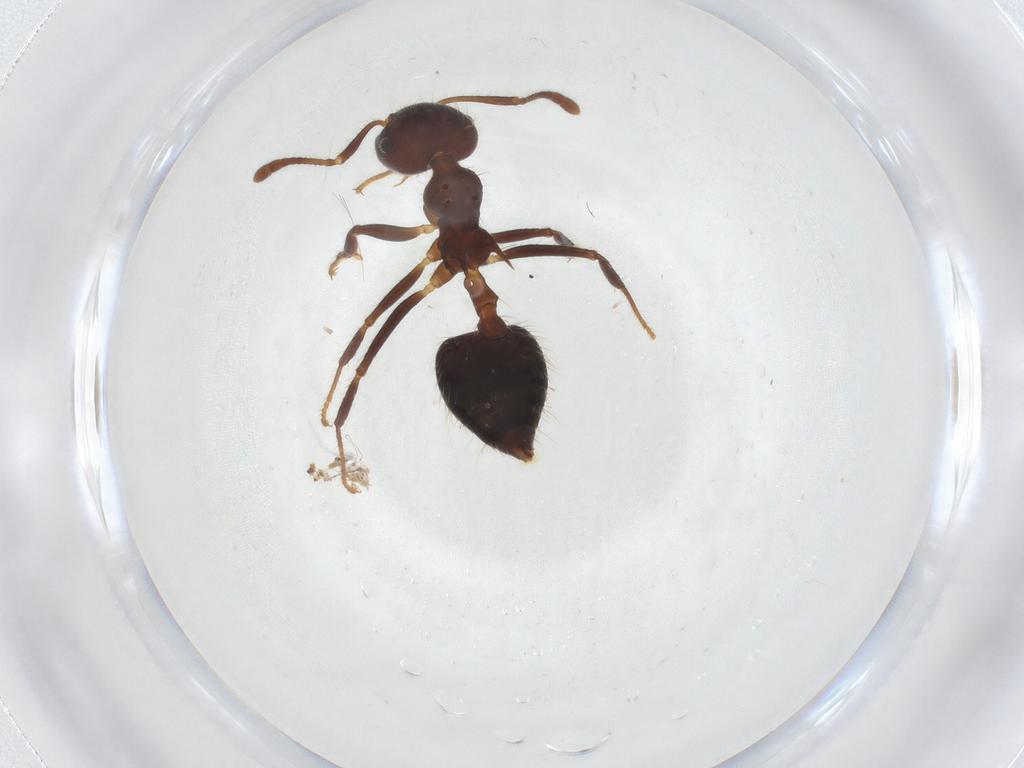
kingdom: Animalia
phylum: Arthropoda
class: Insecta
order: Hymenoptera
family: Formicidae
